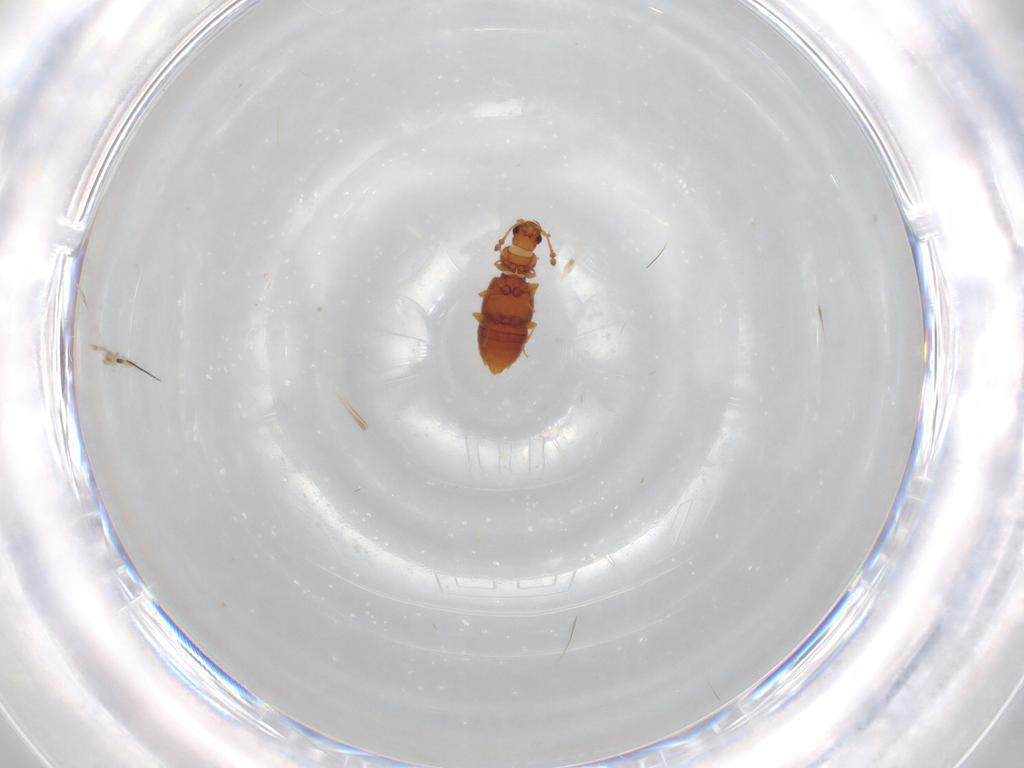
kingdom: Animalia
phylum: Arthropoda
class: Insecta
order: Coleoptera
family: Staphylinidae
